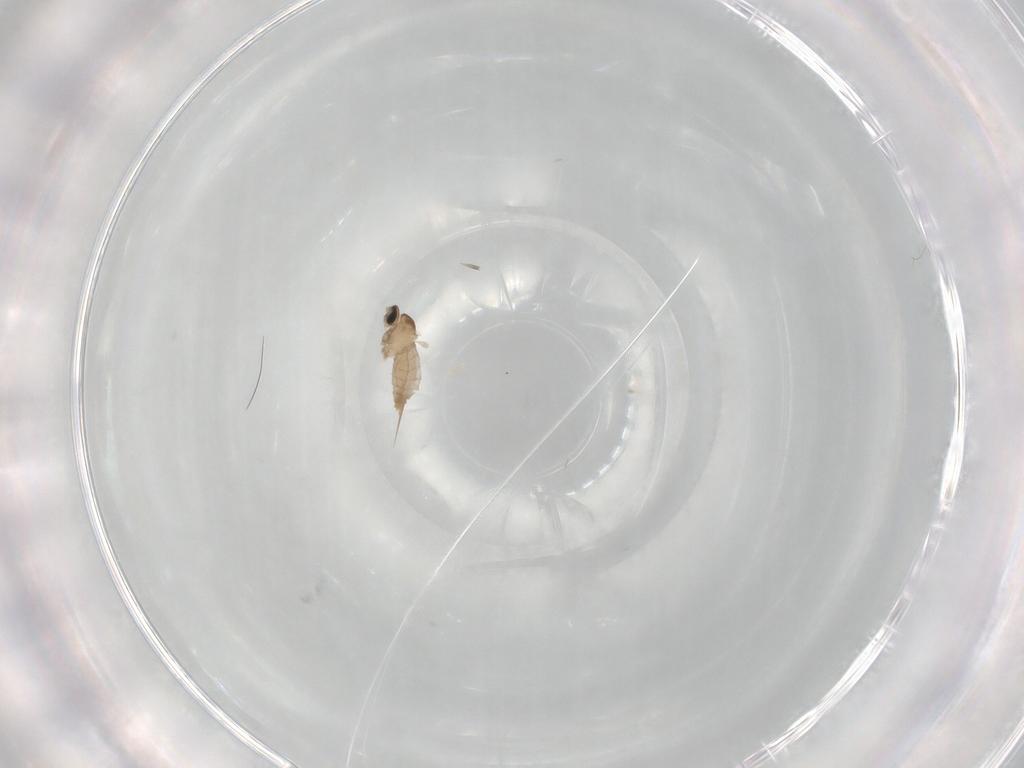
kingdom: Animalia
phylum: Arthropoda
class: Insecta
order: Diptera
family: Cecidomyiidae
